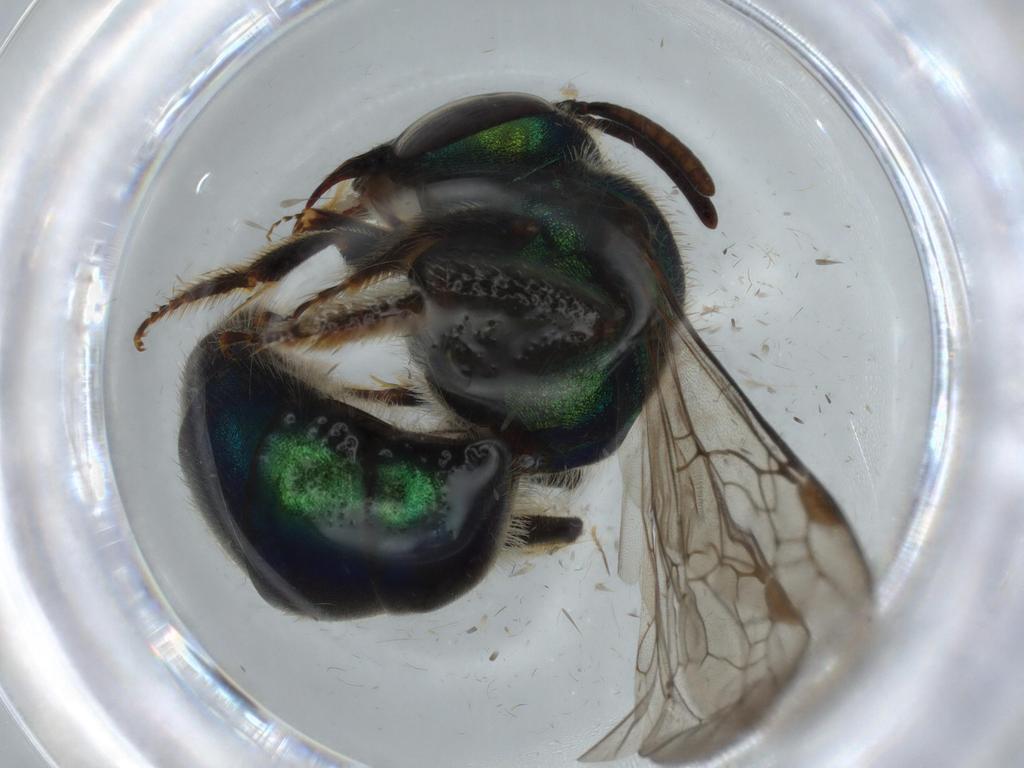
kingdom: Animalia
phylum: Arthropoda
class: Insecta
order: Hymenoptera
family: Halictidae
